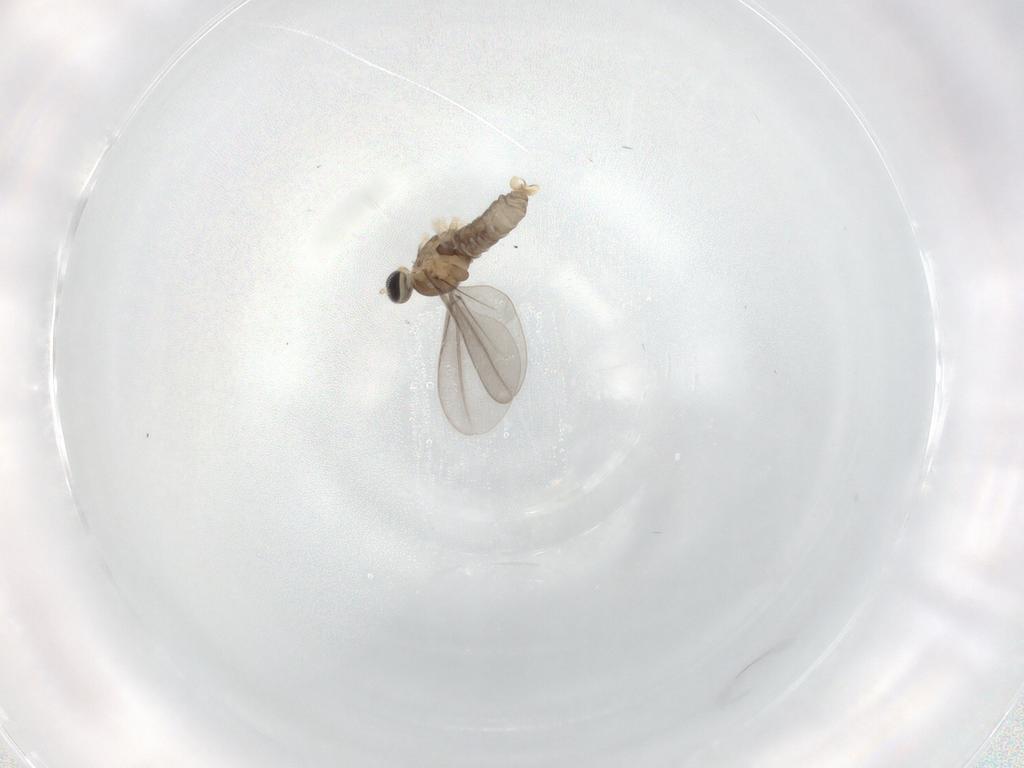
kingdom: Animalia
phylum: Arthropoda
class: Insecta
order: Diptera
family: Cecidomyiidae
